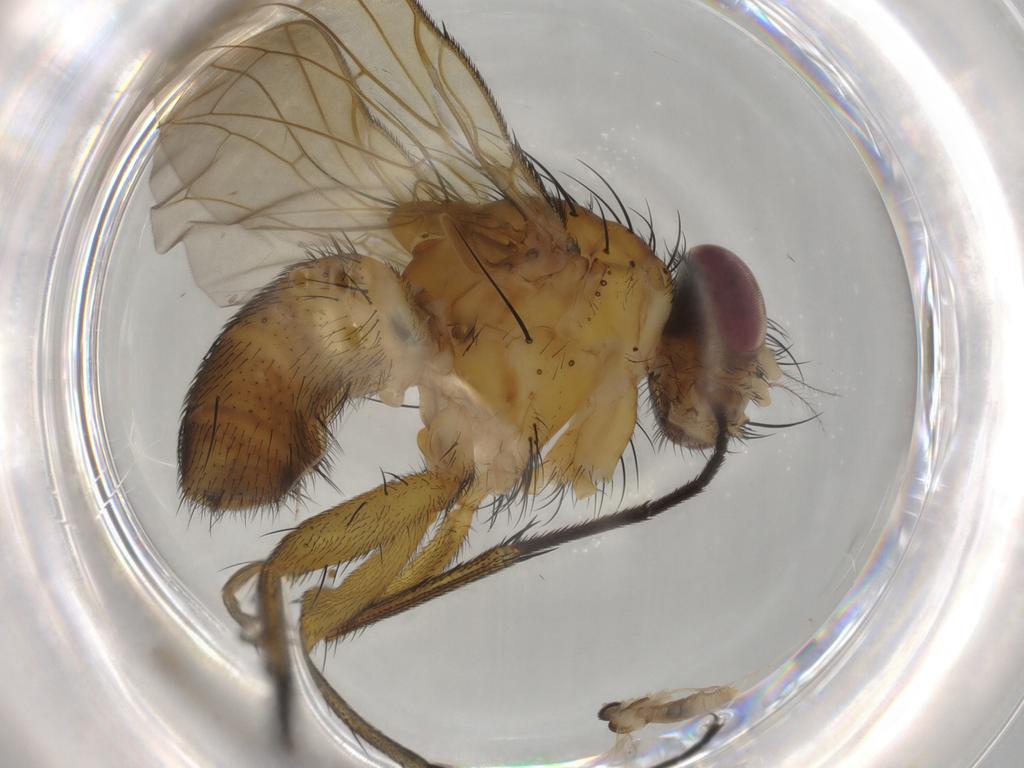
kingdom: Animalia
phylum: Arthropoda
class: Insecta
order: Diptera
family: Calliphoridae
